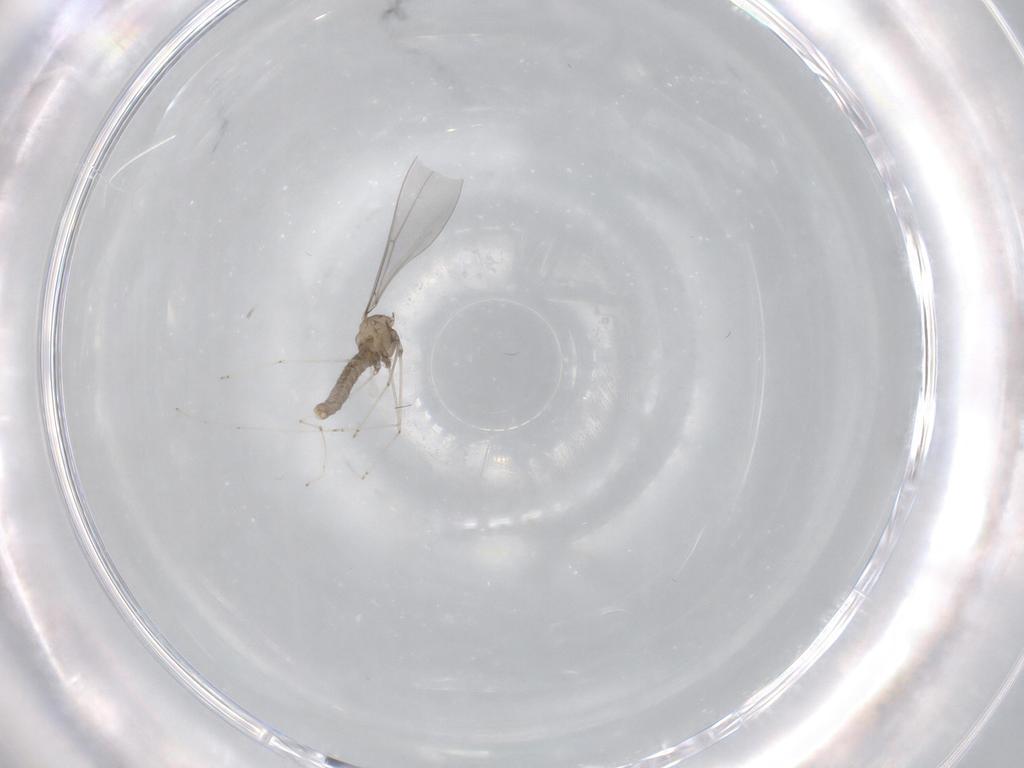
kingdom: Animalia
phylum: Arthropoda
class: Insecta
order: Diptera
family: Cecidomyiidae
